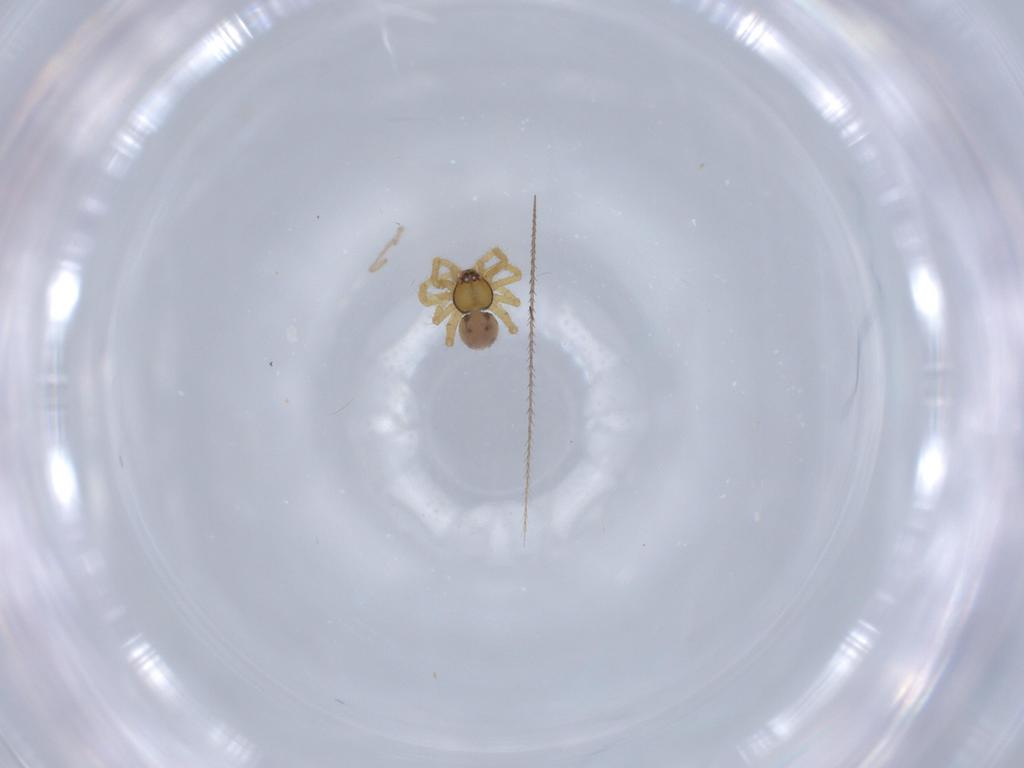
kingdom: Animalia
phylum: Arthropoda
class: Arachnida
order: Araneae
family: Theridiidae
